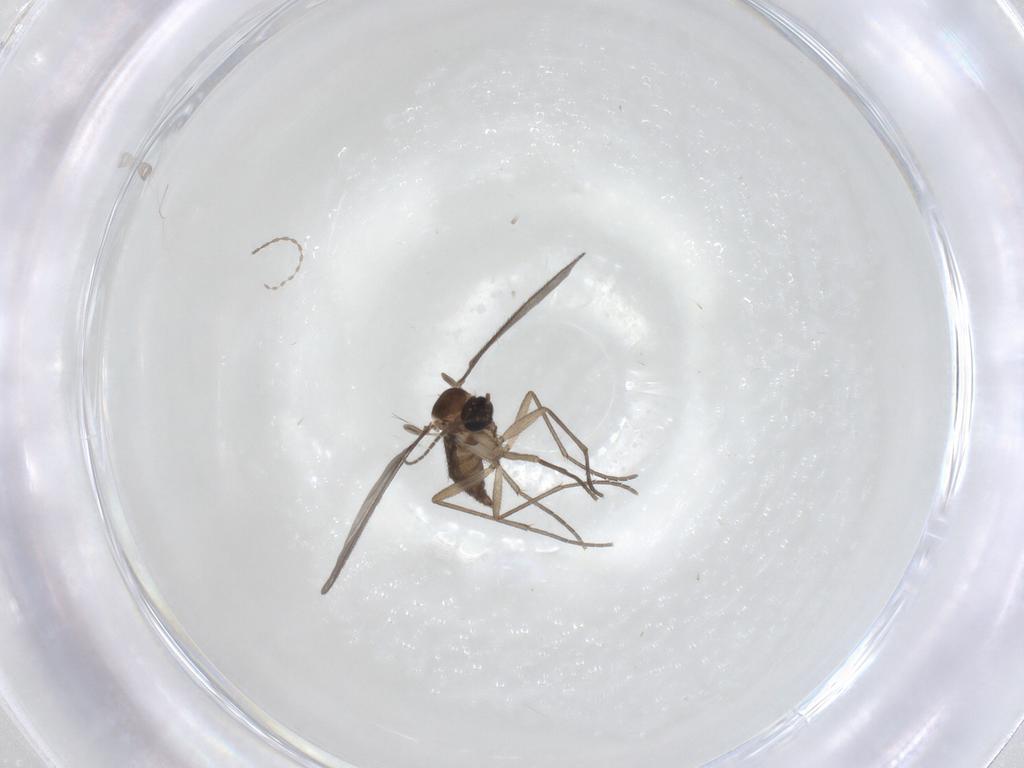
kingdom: Animalia
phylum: Arthropoda
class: Insecta
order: Diptera
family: Sciaridae
